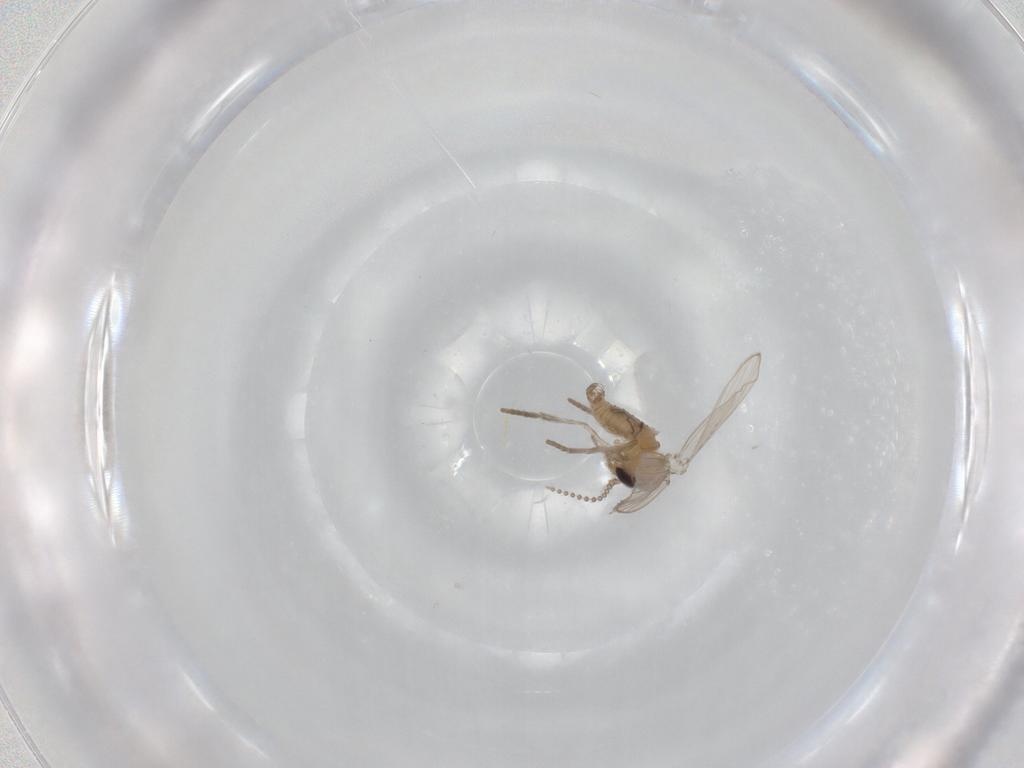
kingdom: Animalia
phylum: Arthropoda
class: Insecta
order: Diptera
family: Chironomidae
